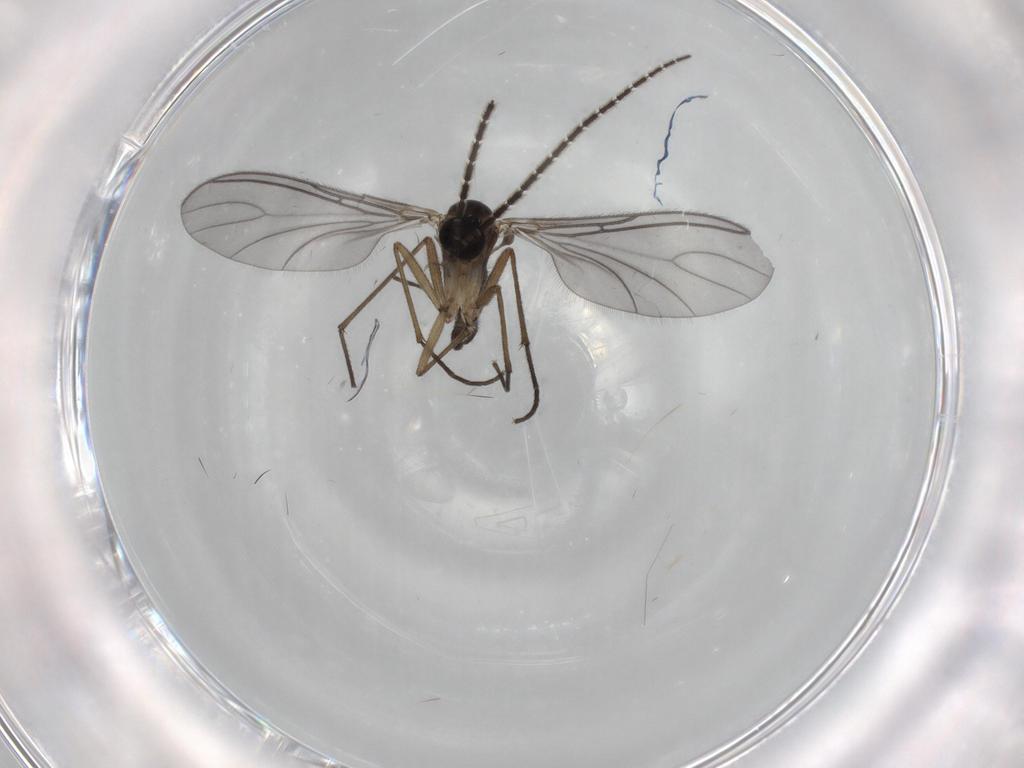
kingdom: Animalia
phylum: Arthropoda
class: Insecta
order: Diptera
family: Sciaridae
